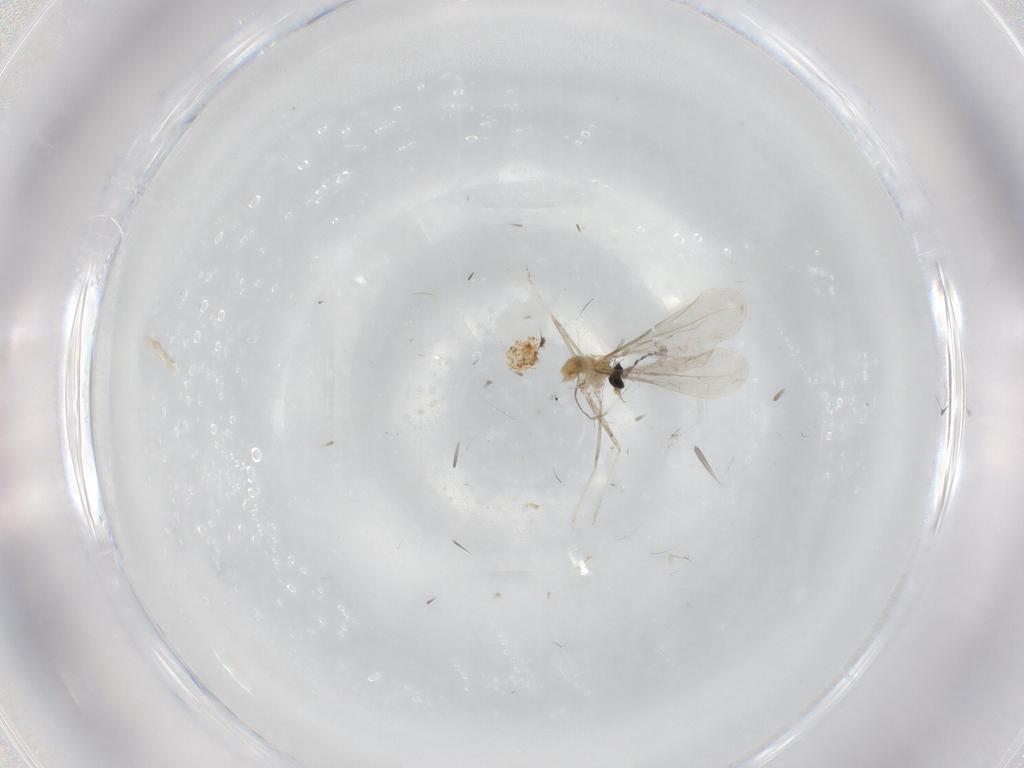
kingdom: Animalia
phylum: Arthropoda
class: Insecta
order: Diptera
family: Cecidomyiidae
